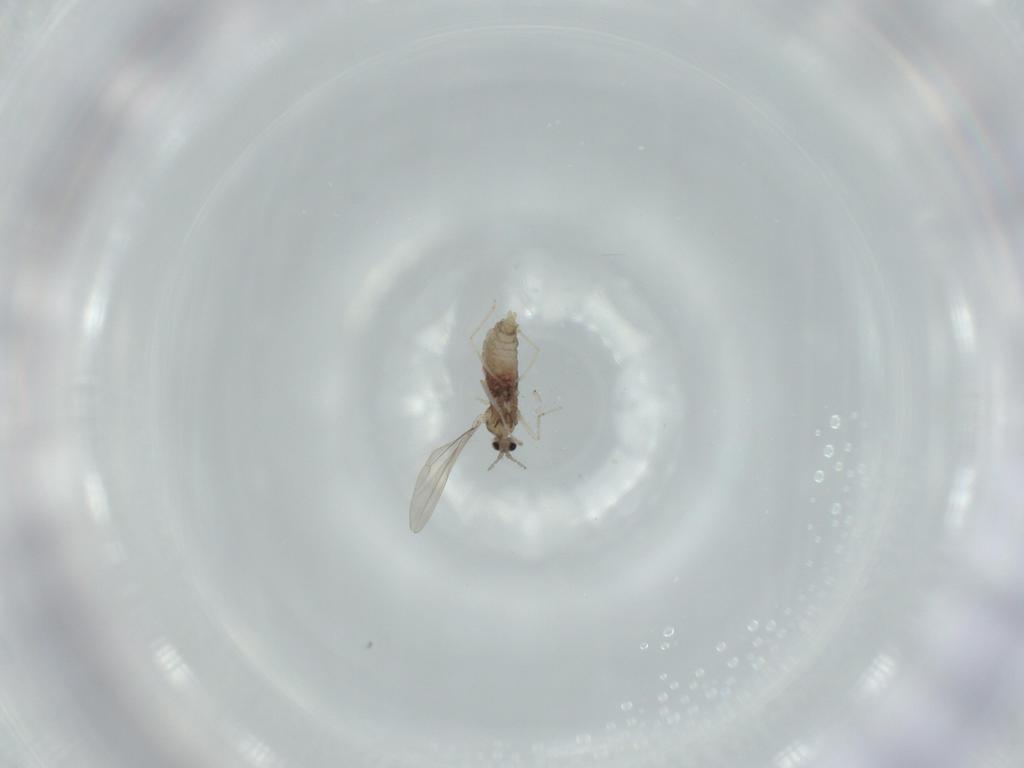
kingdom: Animalia
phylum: Arthropoda
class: Insecta
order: Diptera
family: Cecidomyiidae
